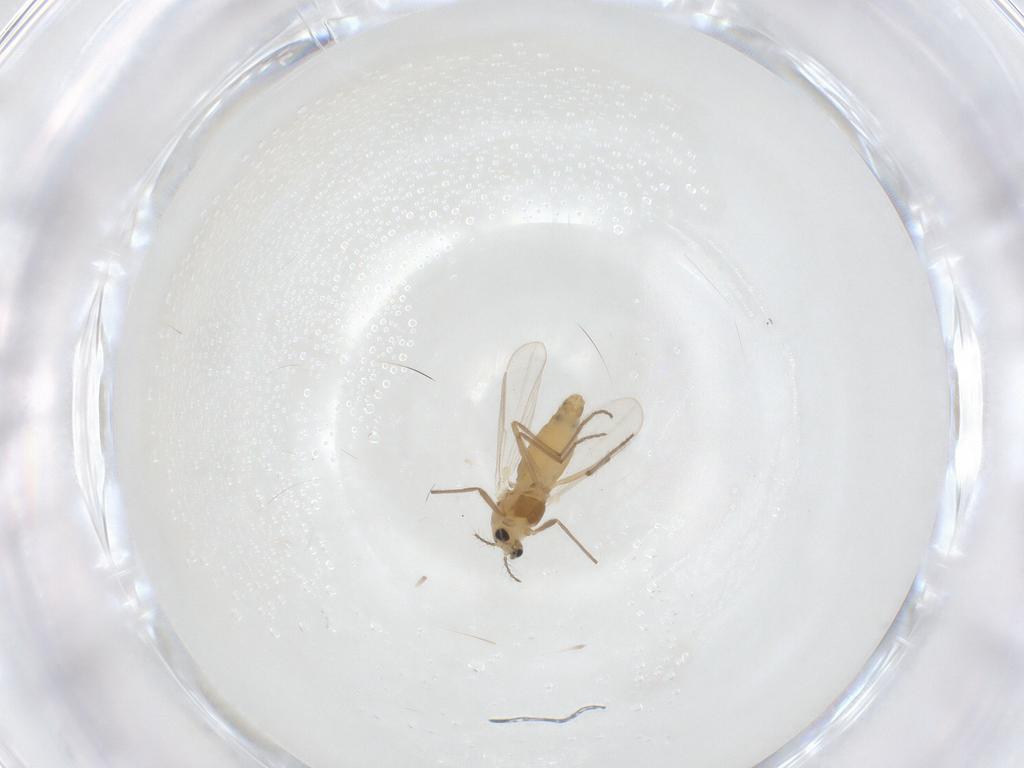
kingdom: Animalia
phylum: Arthropoda
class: Insecta
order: Diptera
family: Chironomidae
